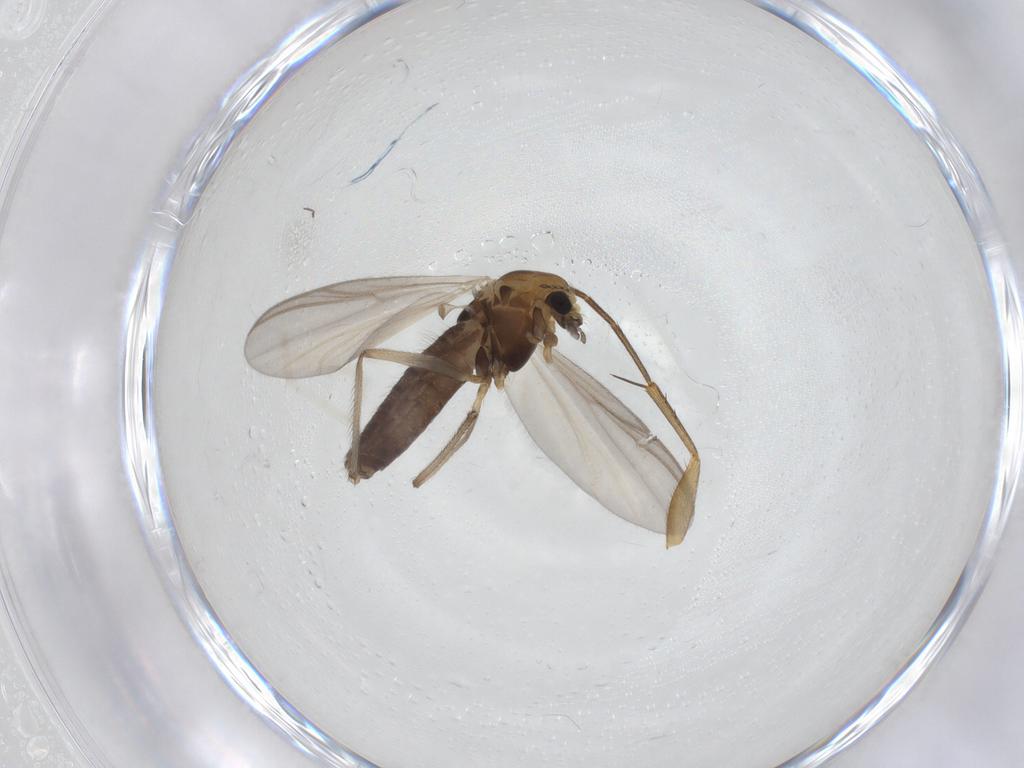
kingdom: Animalia
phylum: Arthropoda
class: Insecta
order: Diptera
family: Chironomidae
